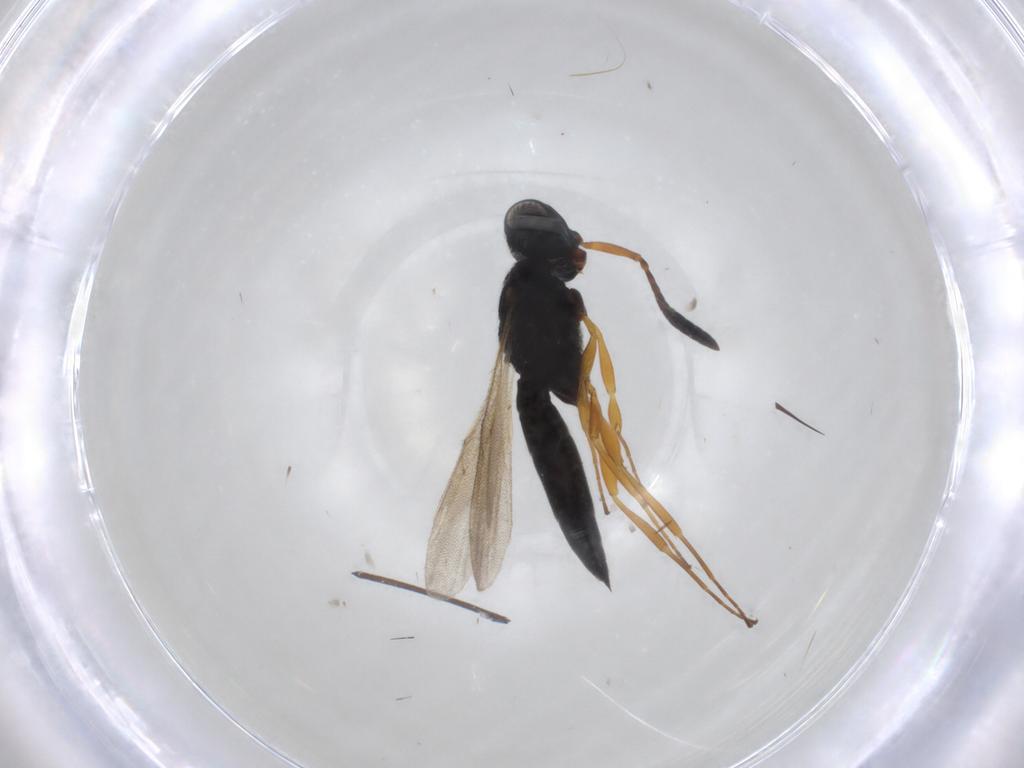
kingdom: Animalia
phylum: Arthropoda
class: Insecta
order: Hymenoptera
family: Scelionidae
